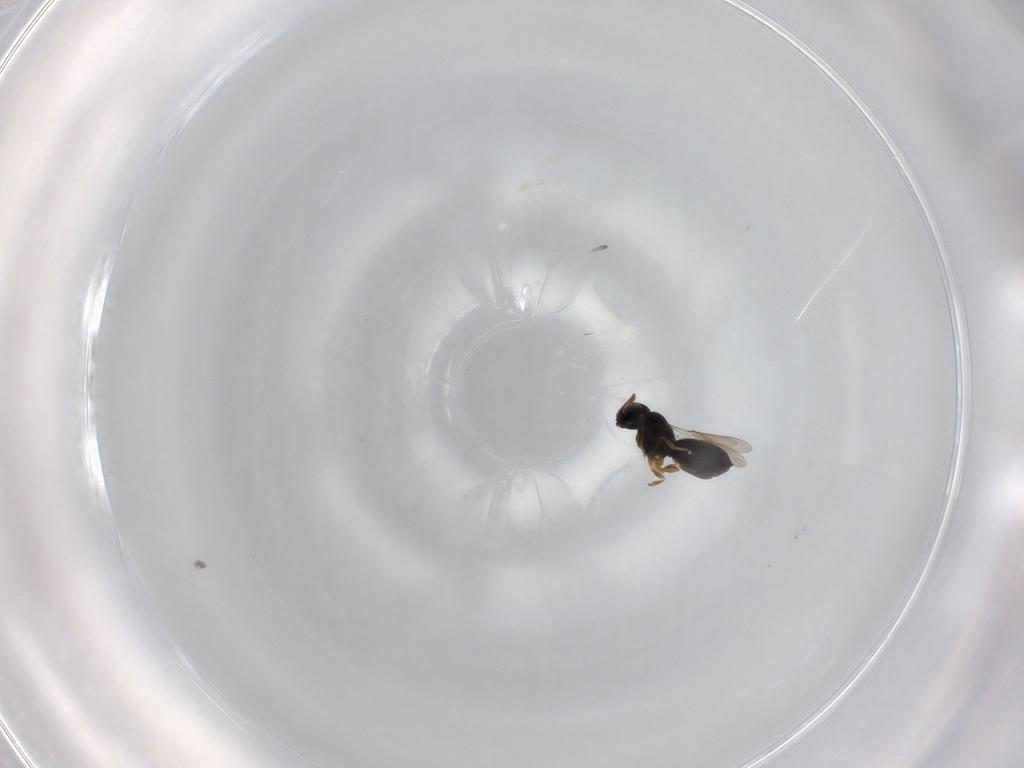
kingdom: Animalia
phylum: Arthropoda
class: Insecta
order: Hymenoptera
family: Scelionidae
